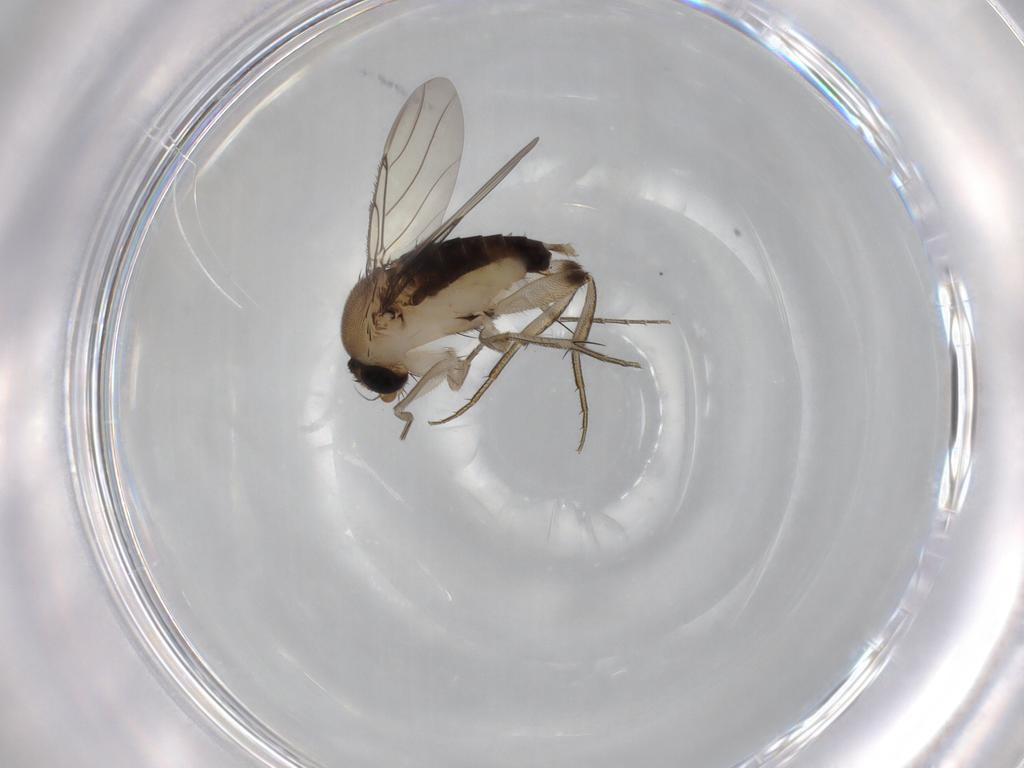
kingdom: Animalia
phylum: Arthropoda
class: Insecta
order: Diptera
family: Phoridae
